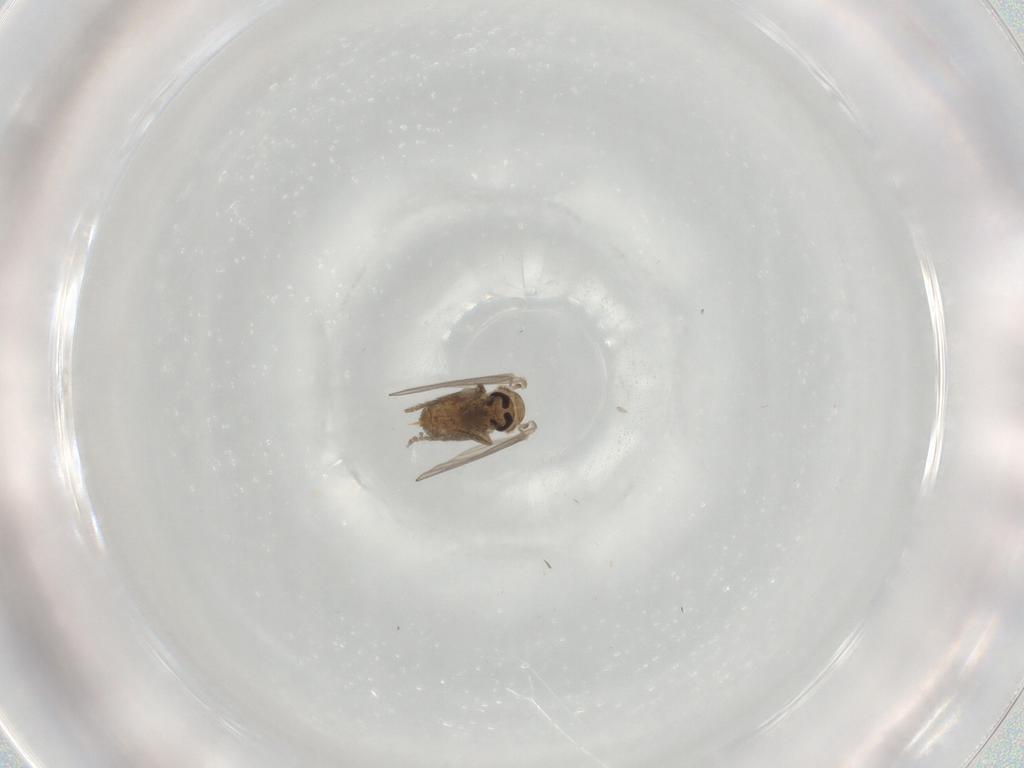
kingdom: Animalia
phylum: Arthropoda
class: Insecta
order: Diptera
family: Psychodidae
